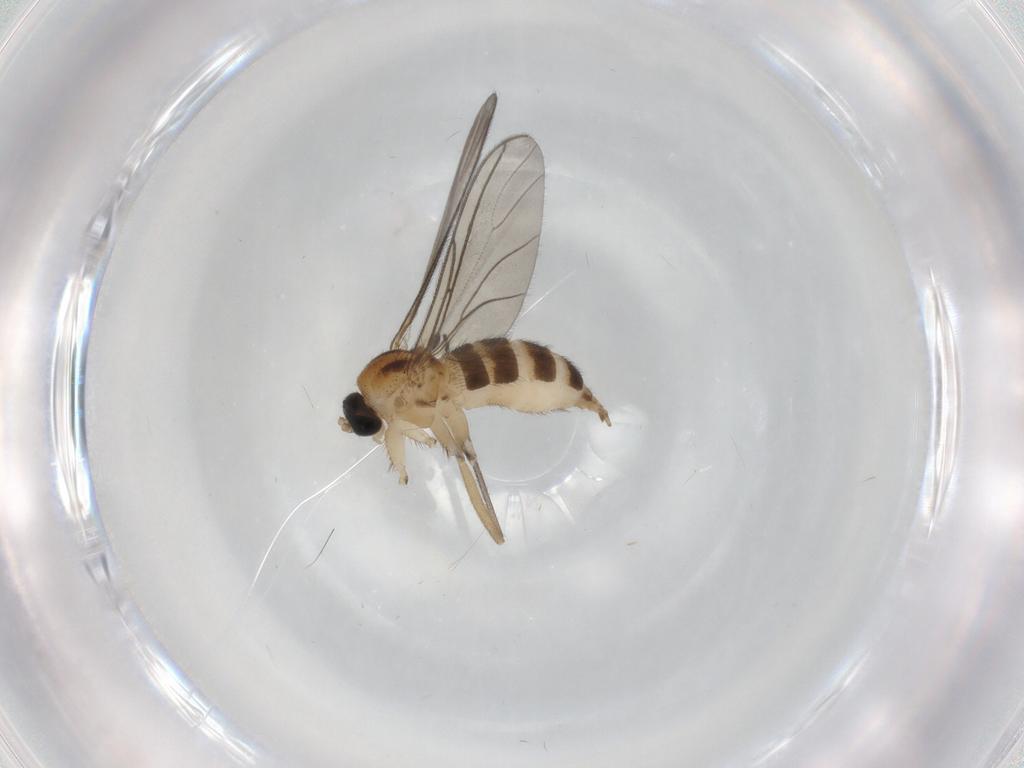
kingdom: Animalia
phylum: Arthropoda
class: Insecta
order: Diptera
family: Sciaridae
